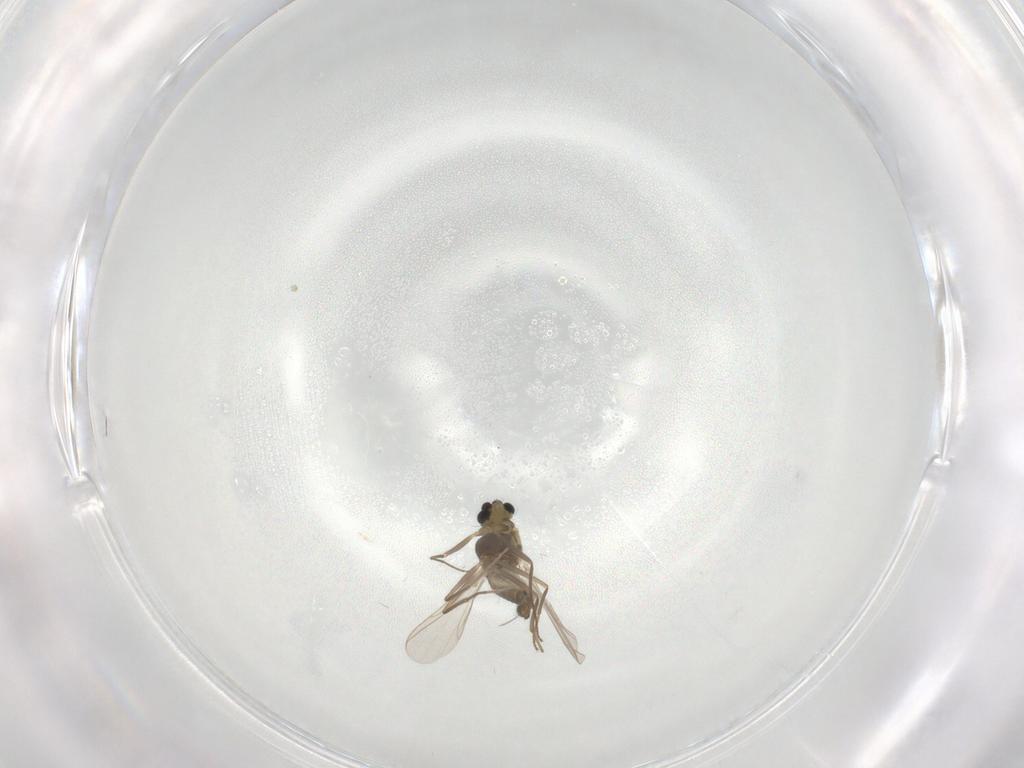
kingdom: Animalia
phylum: Arthropoda
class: Insecta
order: Diptera
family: Chironomidae
